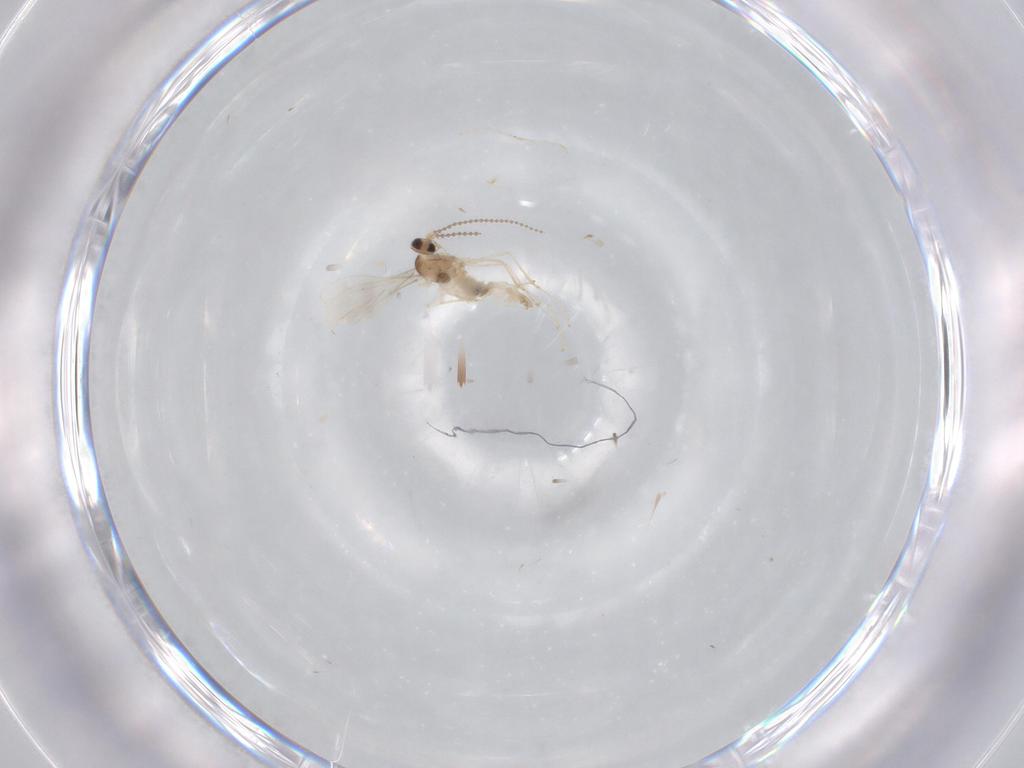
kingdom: Animalia
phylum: Arthropoda
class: Insecta
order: Diptera
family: Cecidomyiidae
